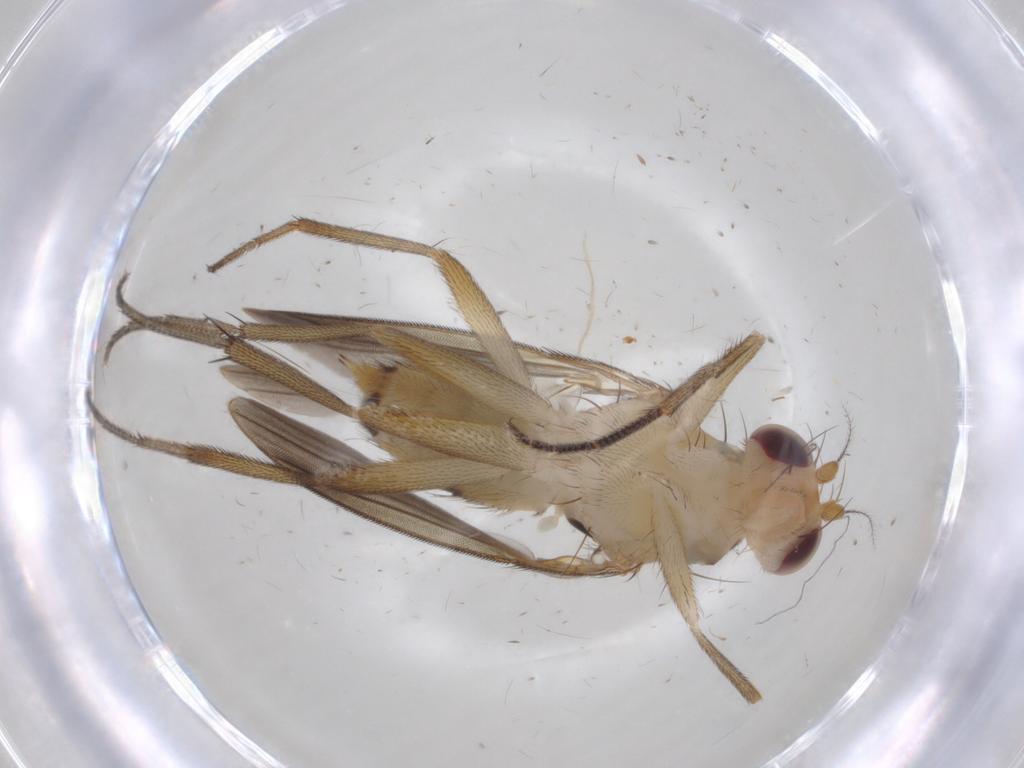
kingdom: Animalia
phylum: Arthropoda
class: Insecta
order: Diptera
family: Clusiidae
